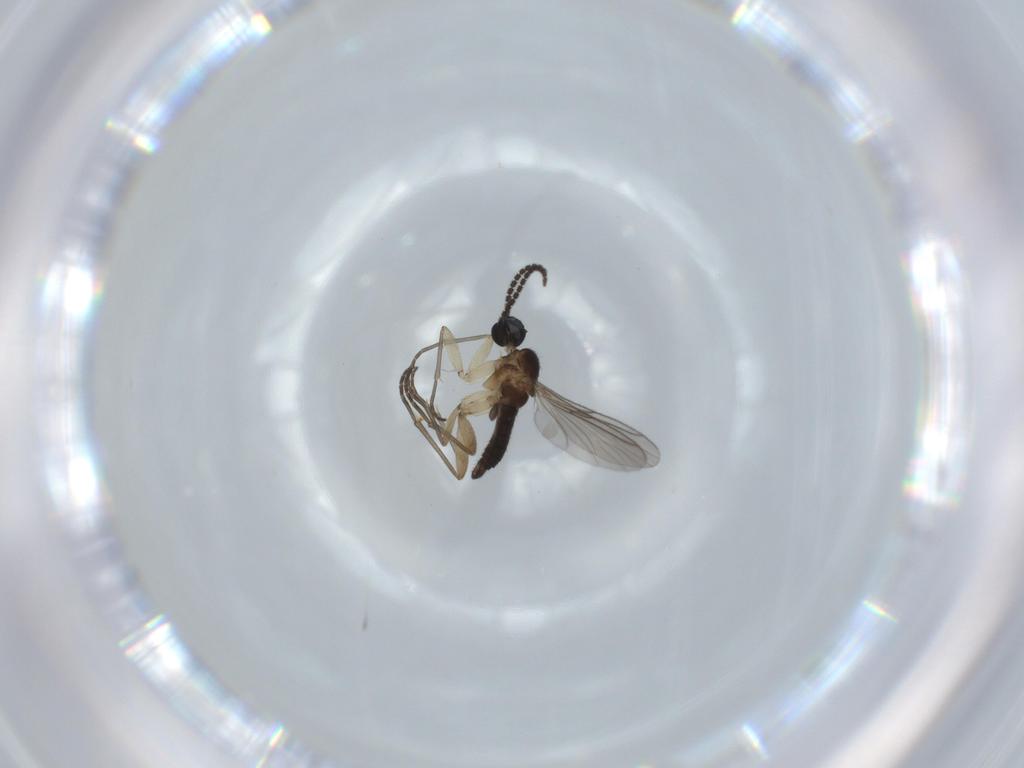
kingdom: Animalia
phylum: Arthropoda
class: Insecta
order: Diptera
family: Sciaridae
